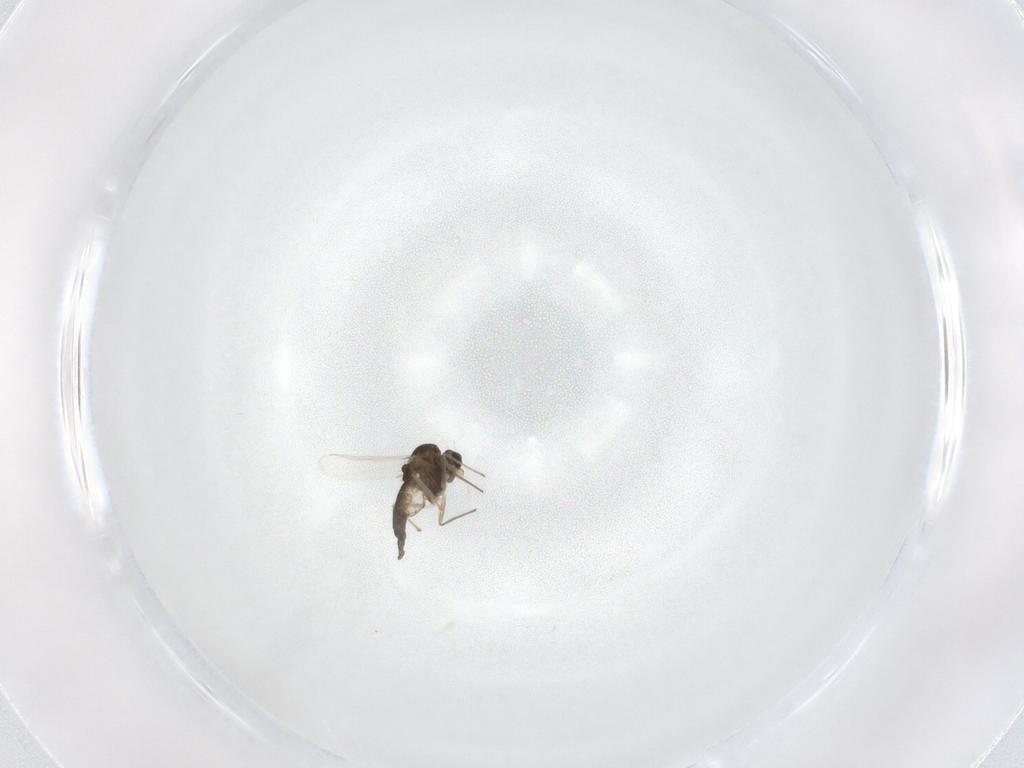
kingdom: Animalia
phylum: Arthropoda
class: Insecta
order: Diptera
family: Chironomidae
